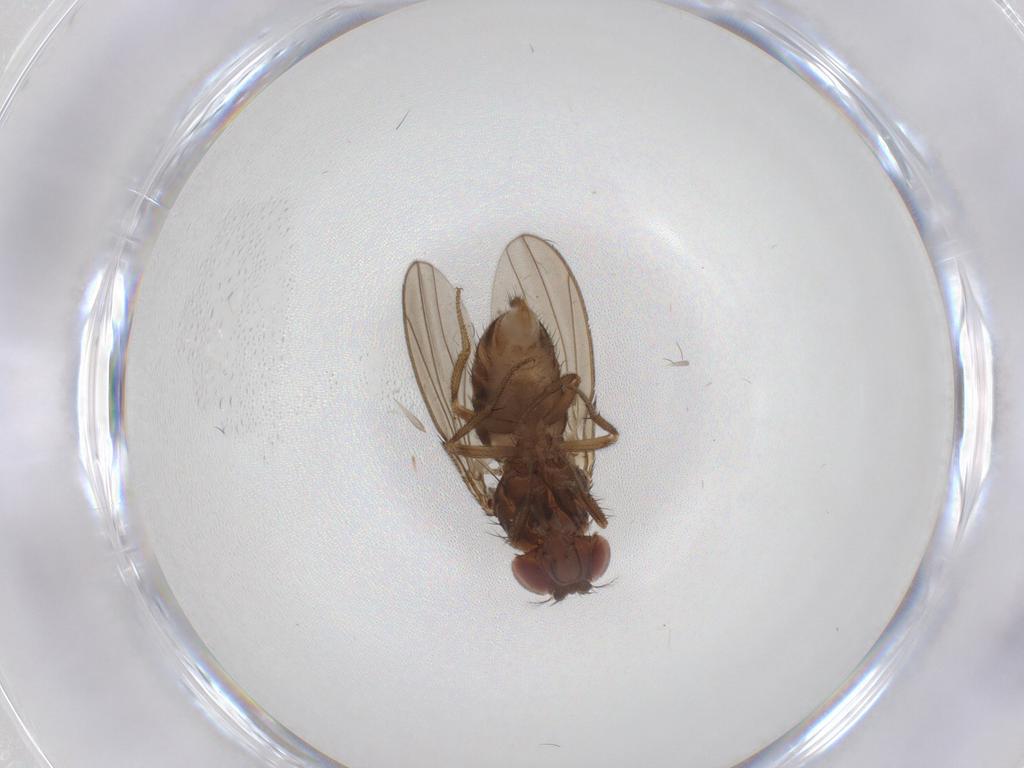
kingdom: Animalia
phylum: Arthropoda
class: Insecta
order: Diptera
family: Drosophilidae
